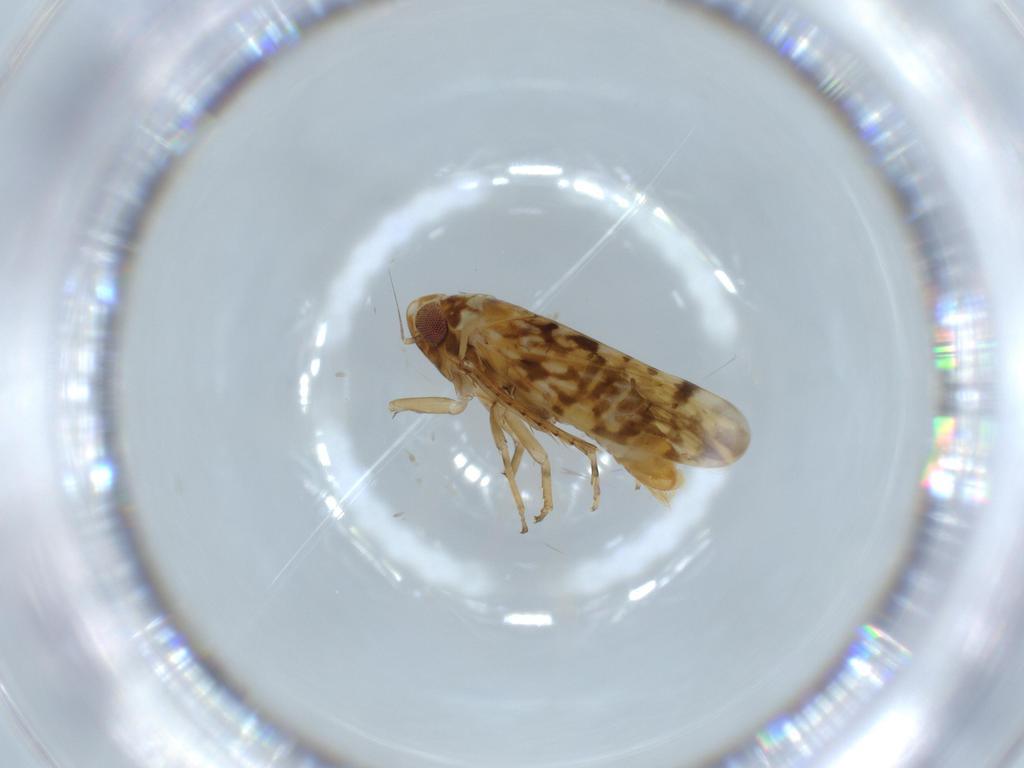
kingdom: Animalia
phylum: Arthropoda
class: Insecta
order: Hemiptera
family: Cicadellidae
